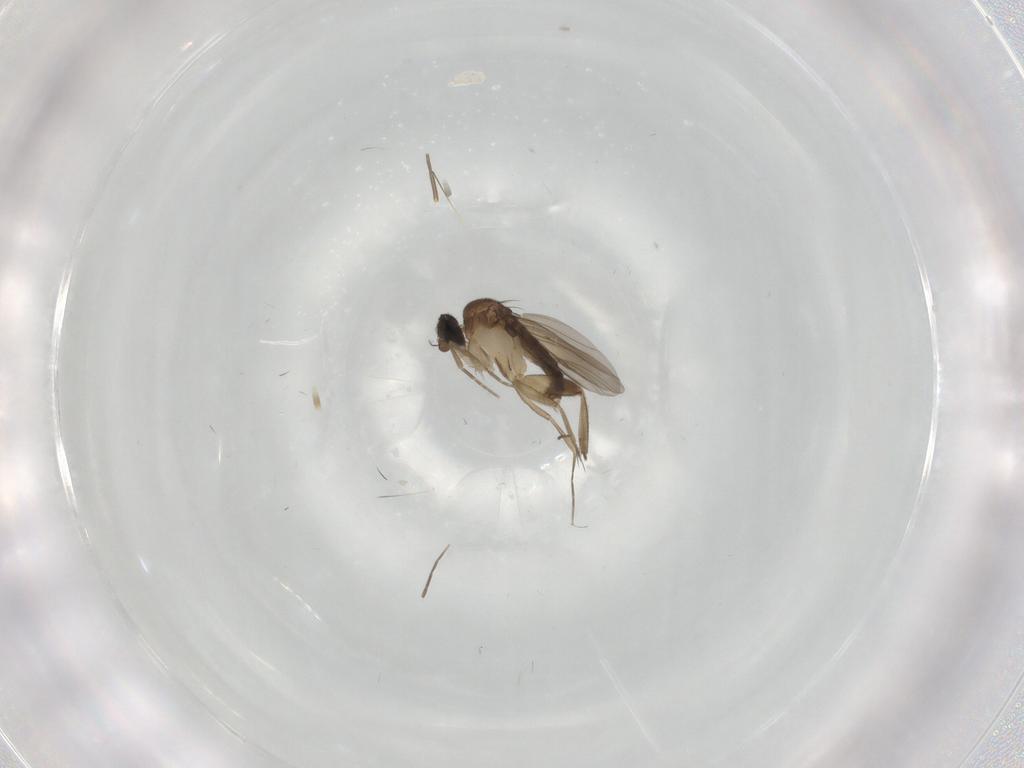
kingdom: Animalia
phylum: Arthropoda
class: Insecta
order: Diptera
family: Phoridae
